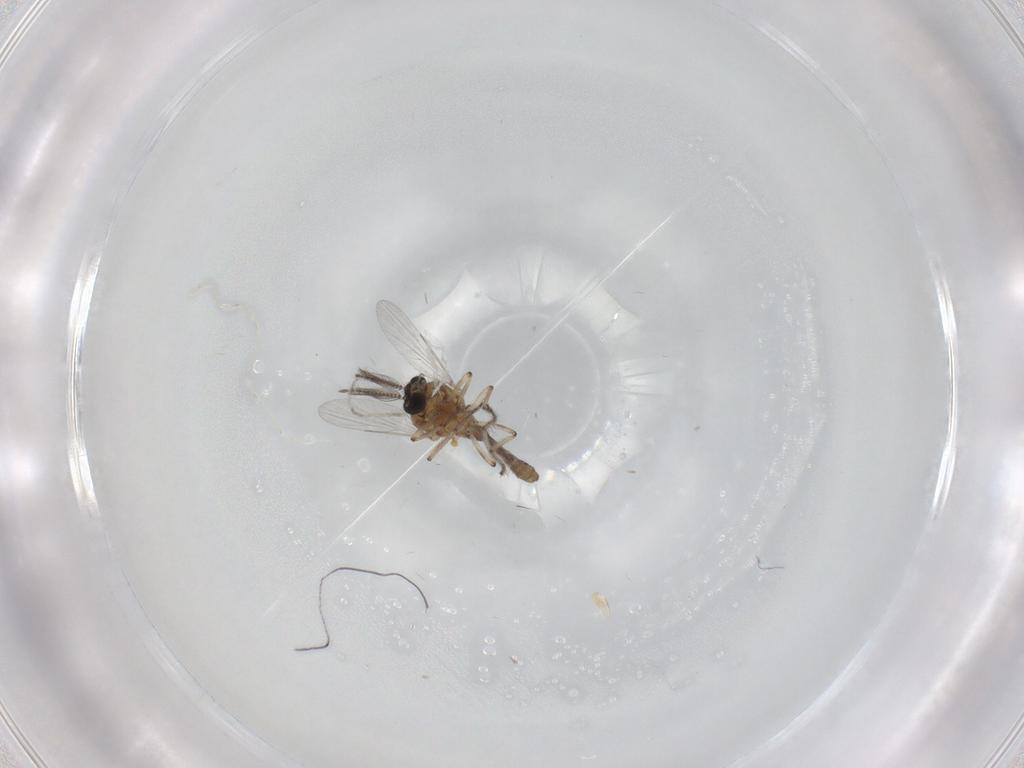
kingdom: Animalia
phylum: Arthropoda
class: Insecta
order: Diptera
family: Ceratopogonidae
